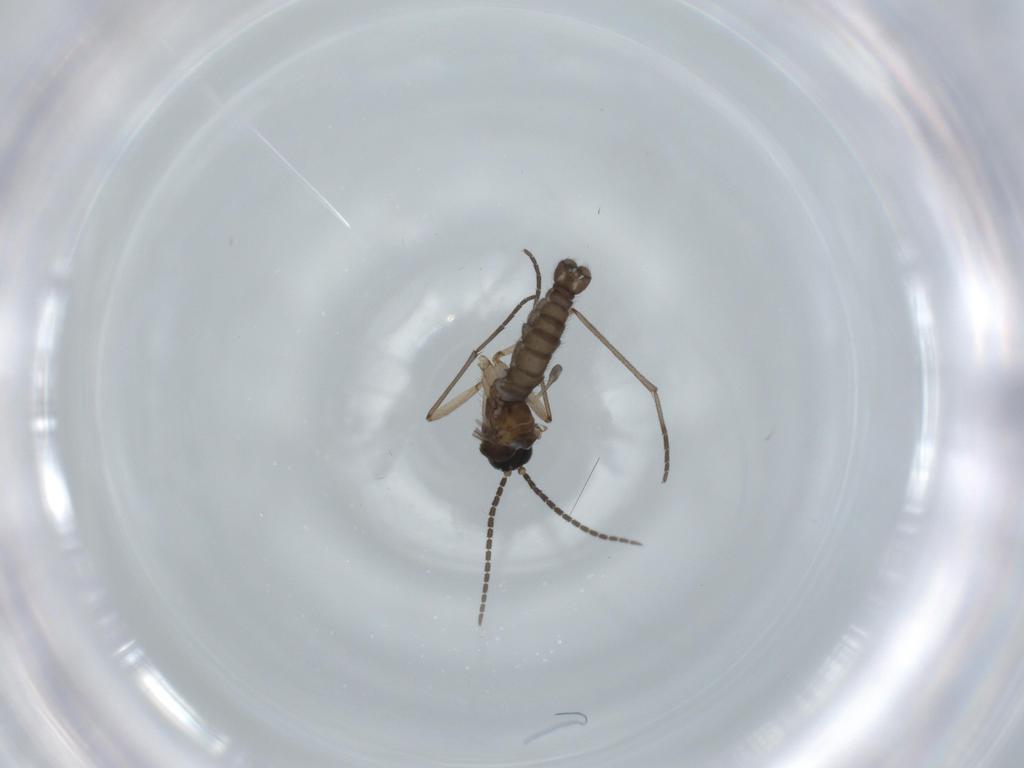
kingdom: Animalia
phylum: Arthropoda
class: Insecta
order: Diptera
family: Sciaridae
